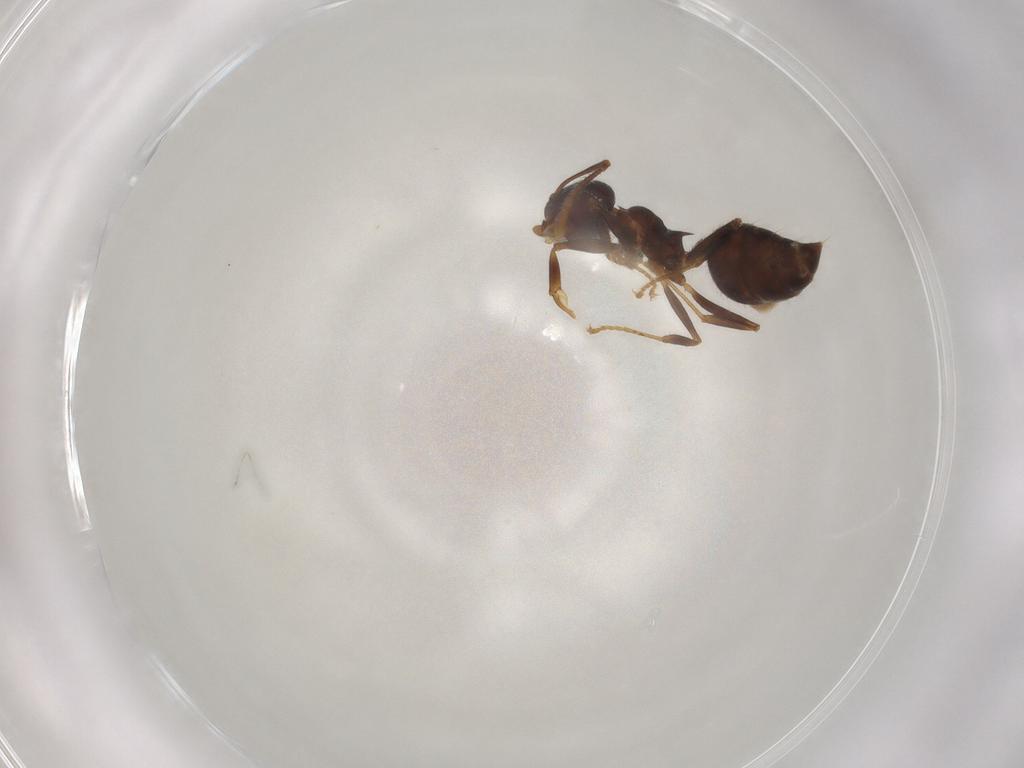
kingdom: Animalia
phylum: Arthropoda
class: Insecta
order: Hymenoptera
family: Formicidae
